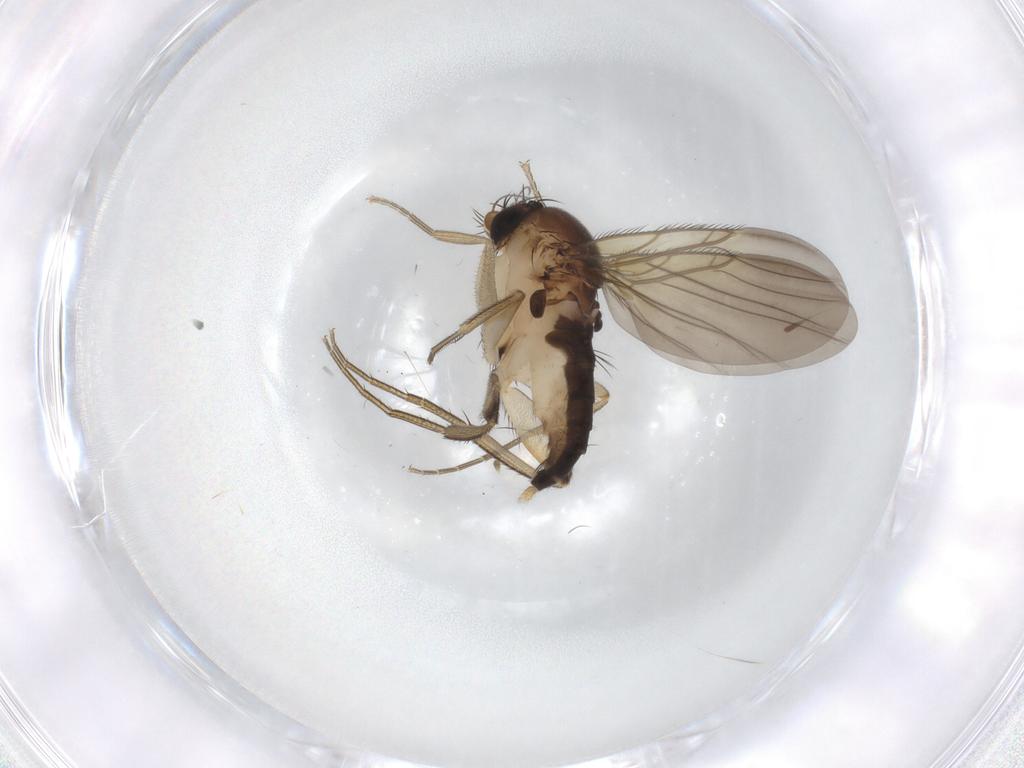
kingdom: Animalia
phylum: Arthropoda
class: Insecta
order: Diptera
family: Phoridae
